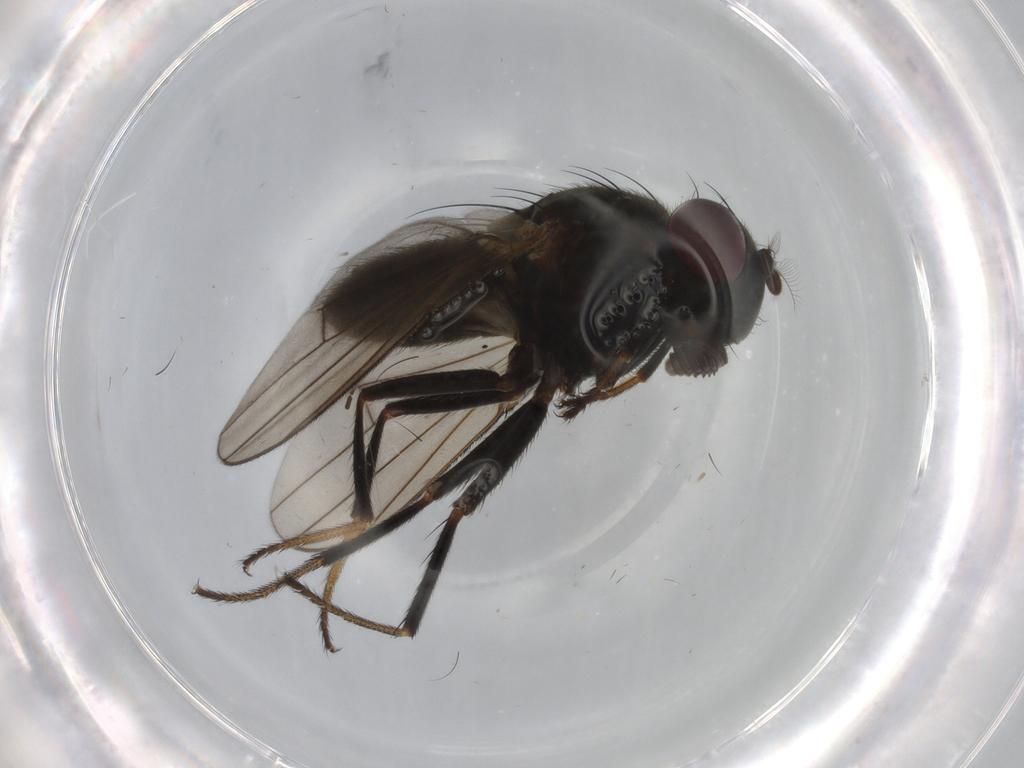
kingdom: Animalia
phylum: Arthropoda
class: Insecta
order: Diptera
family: Ephydridae
